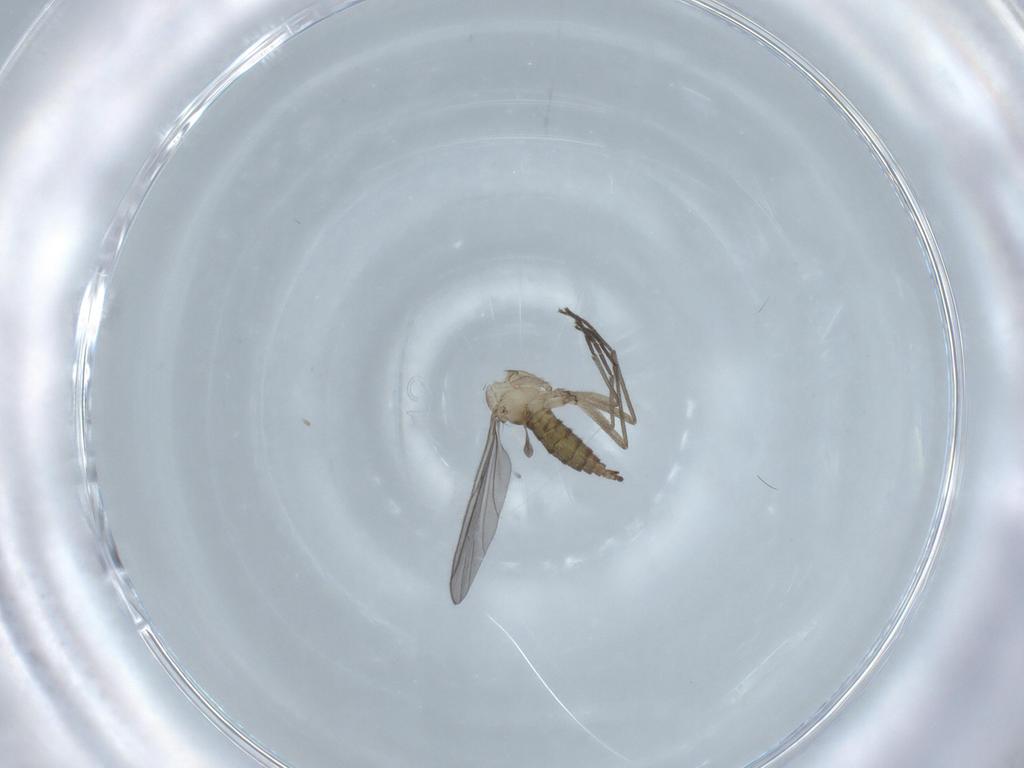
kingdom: Animalia
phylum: Arthropoda
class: Insecta
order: Diptera
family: Sciaridae
